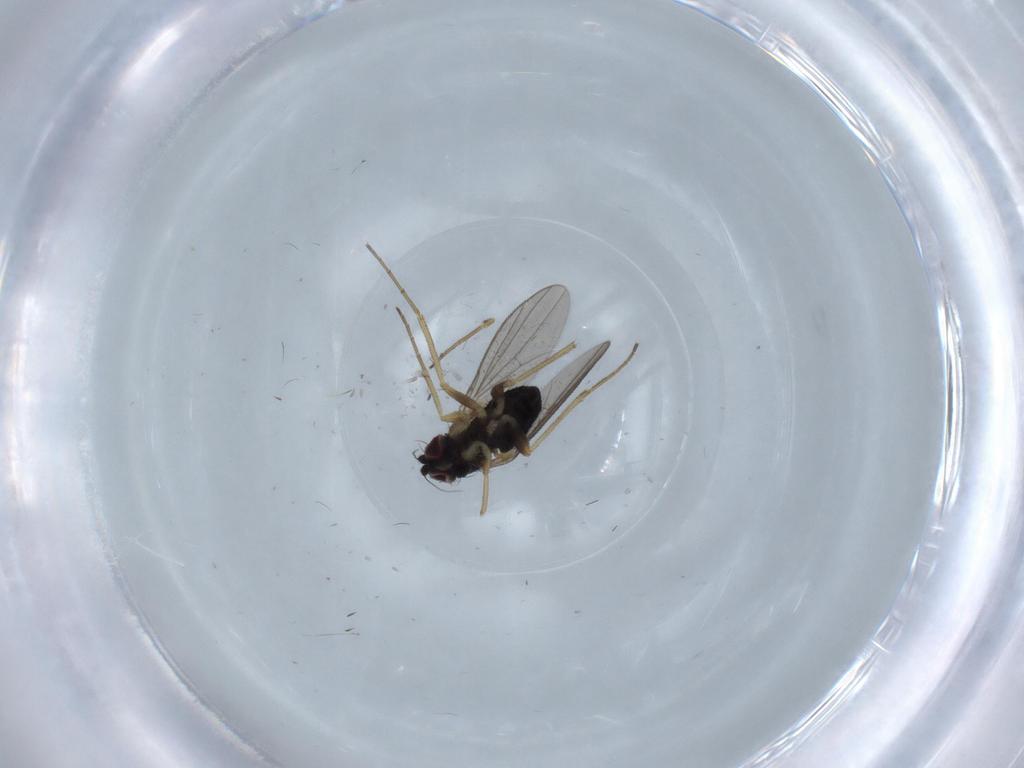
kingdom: Animalia
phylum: Arthropoda
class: Insecta
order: Diptera
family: Dolichopodidae
